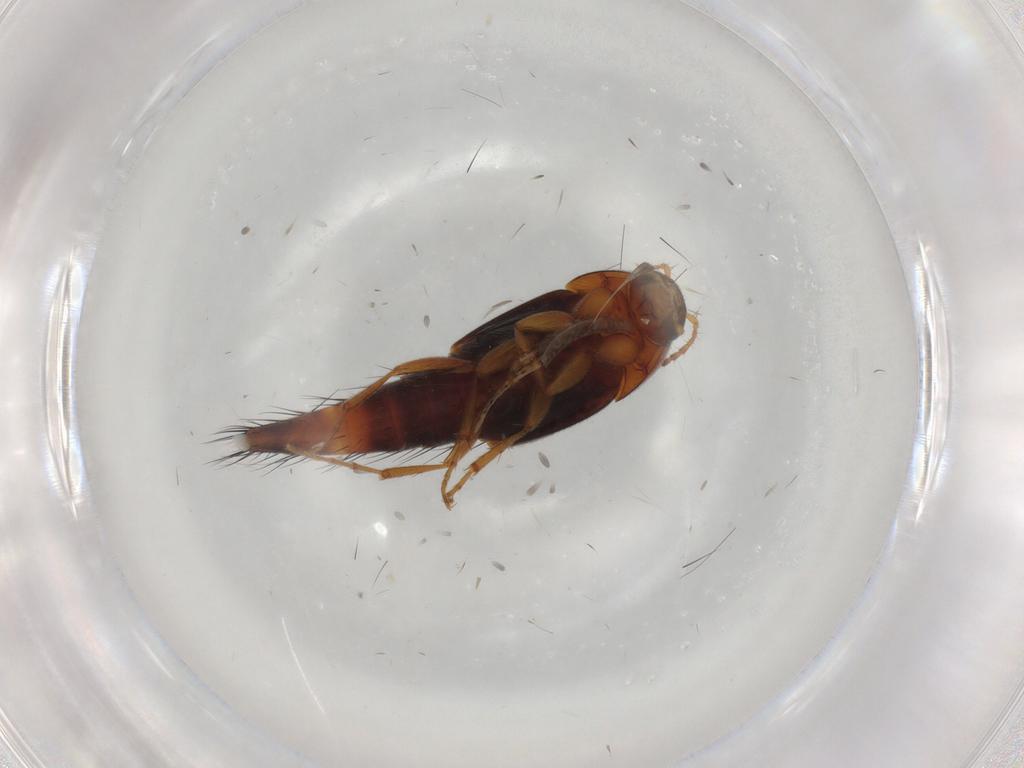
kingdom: Animalia
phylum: Arthropoda
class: Insecta
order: Coleoptera
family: Staphylinidae
